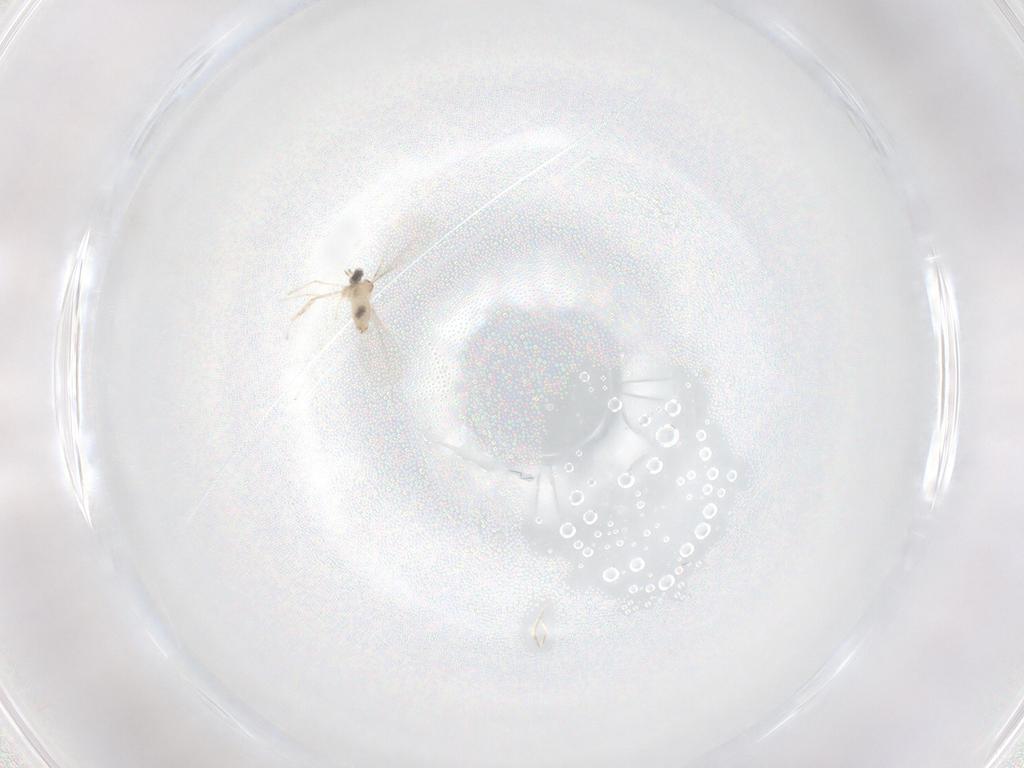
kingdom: Animalia
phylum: Arthropoda
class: Insecta
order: Diptera
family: Cecidomyiidae
